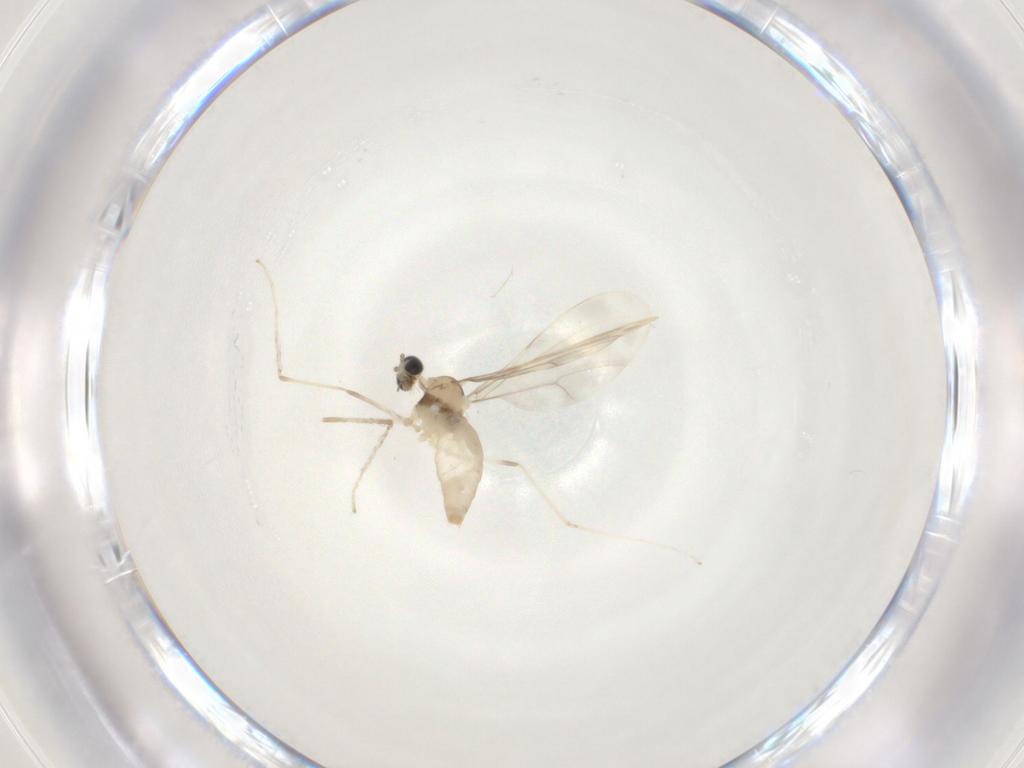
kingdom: Animalia
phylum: Arthropoda
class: Insecta
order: Diptera
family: Cecidomyiidae
